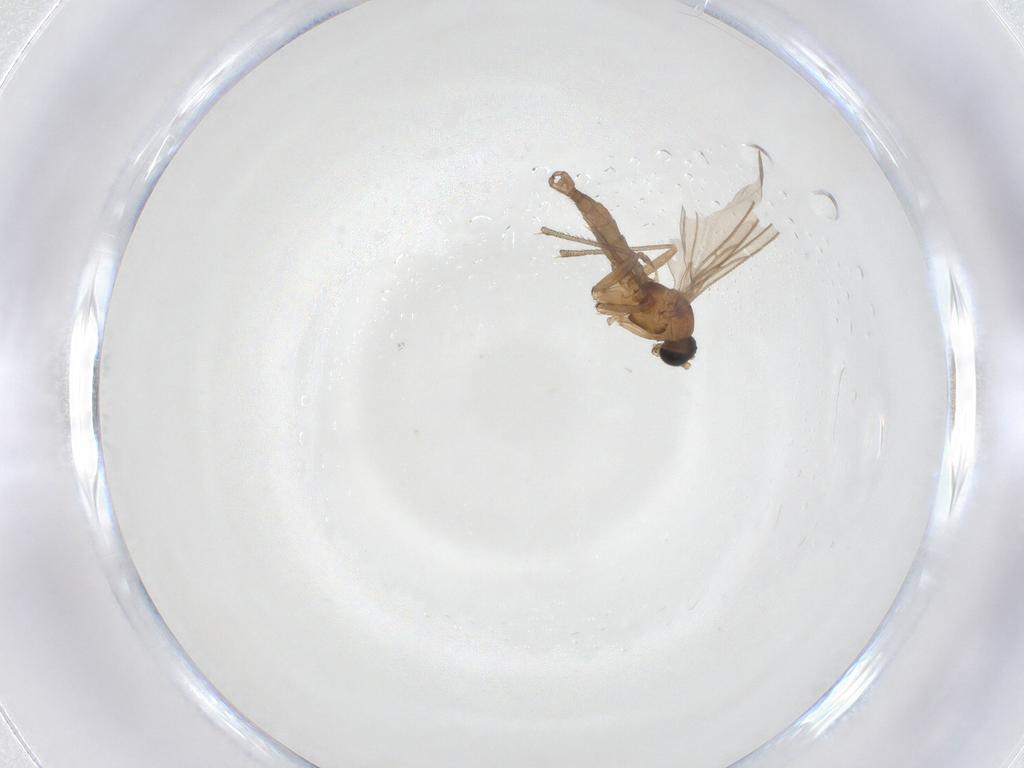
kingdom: Animalia
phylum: Arthropoda
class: Insecta
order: Diptera
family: Sciaridae
